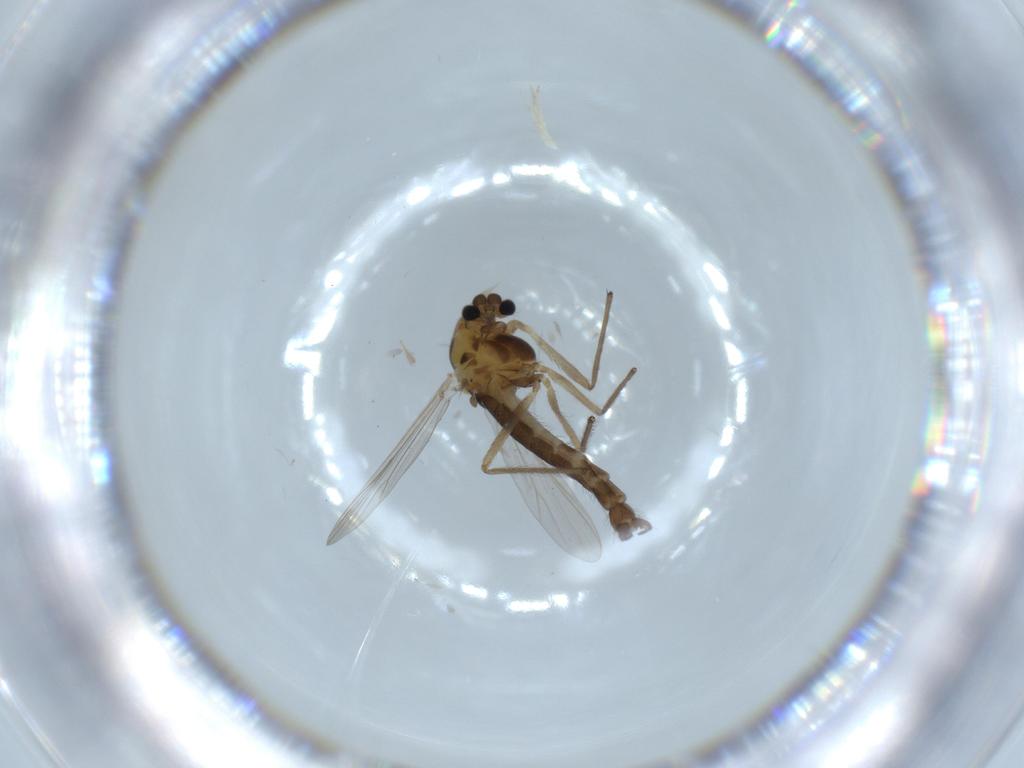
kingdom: Animalia
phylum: Arthropoda
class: Insecta
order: Diptera
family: Chironomidae
